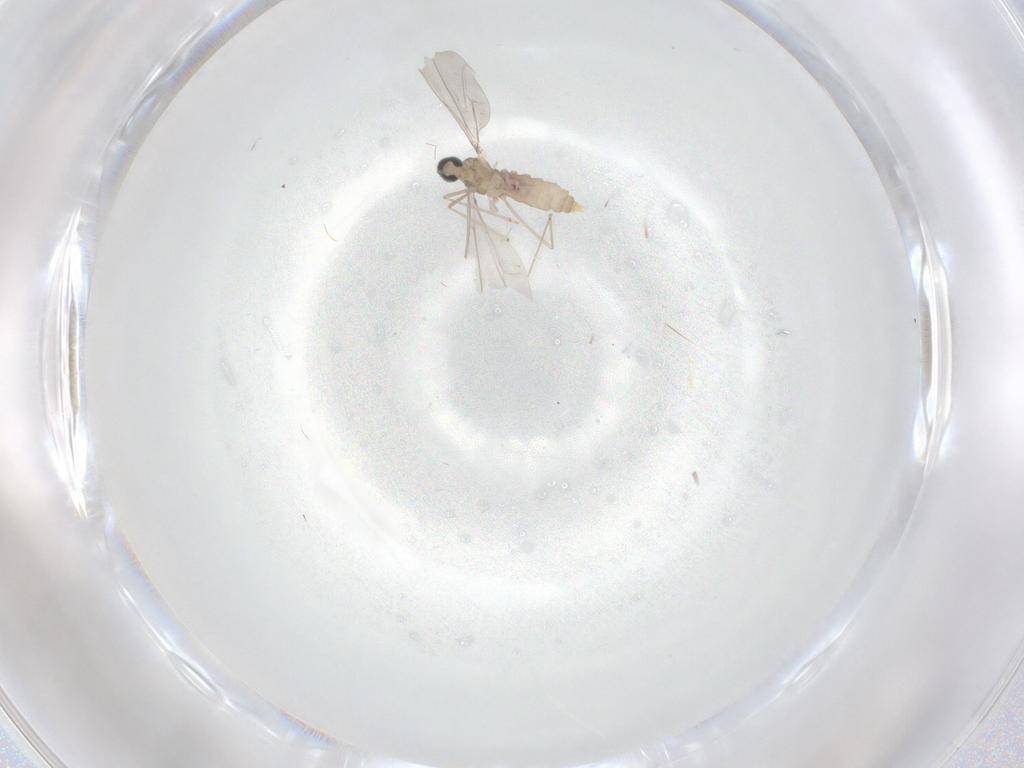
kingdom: Animalia
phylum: Arthropoda
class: Insecta
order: Diptera
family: Cecidomyiidae
